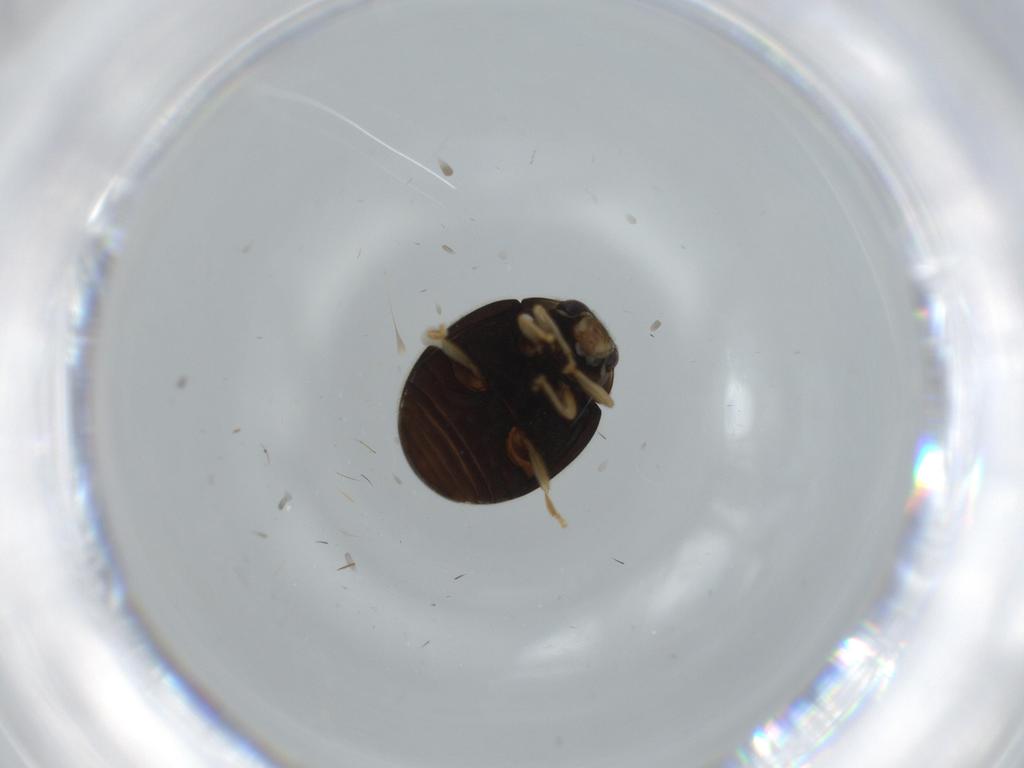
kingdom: Animalia
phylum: Arthropoda
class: Insecta
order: Coleoptera
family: Coccinellidae
